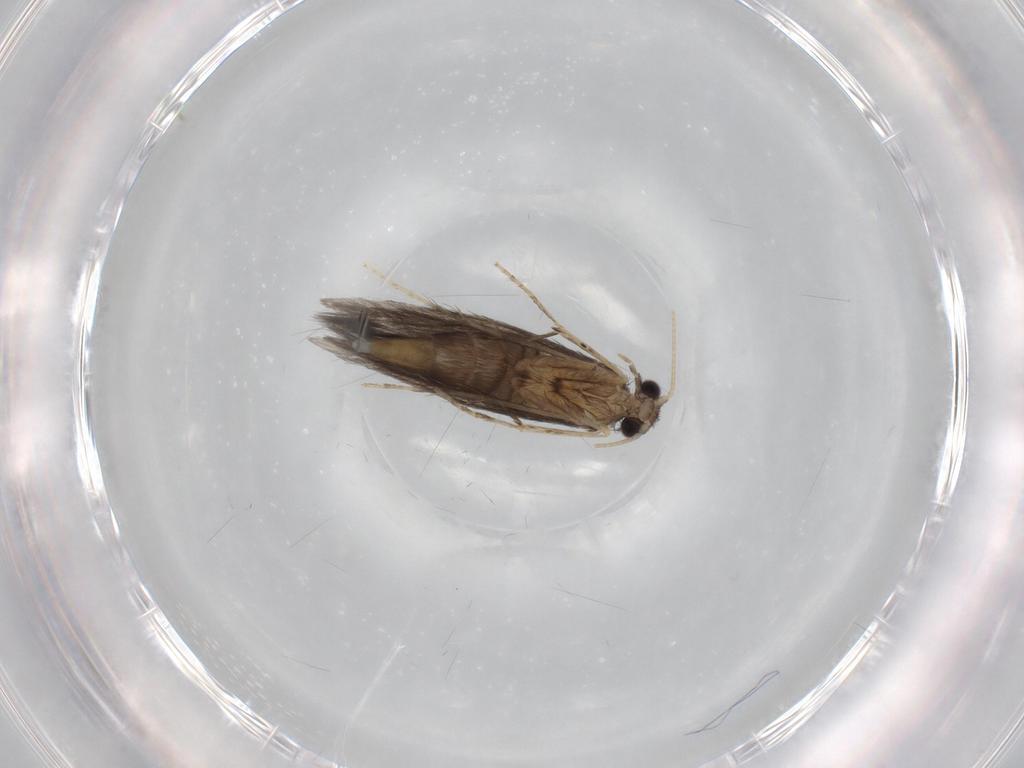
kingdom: Animalia
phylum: Arthropoda
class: Insecta
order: Trichoptera
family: Hydroptilidae
